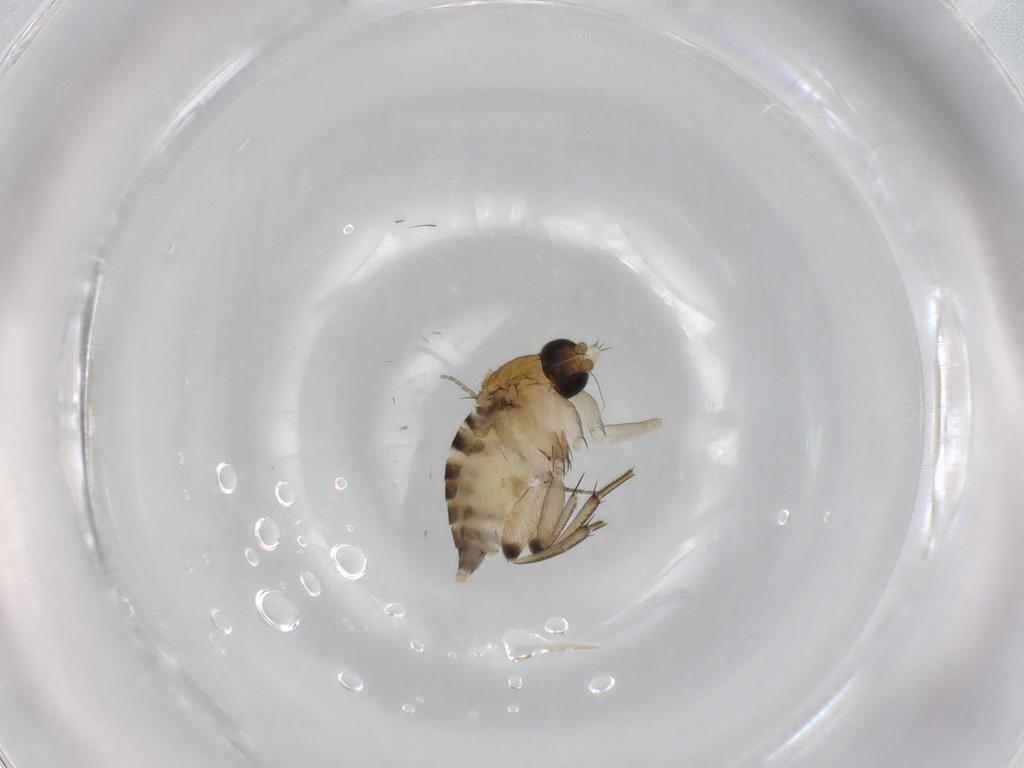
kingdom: Animalia
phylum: Arthropoda
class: Insecta
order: Diptera
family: Phoridae
